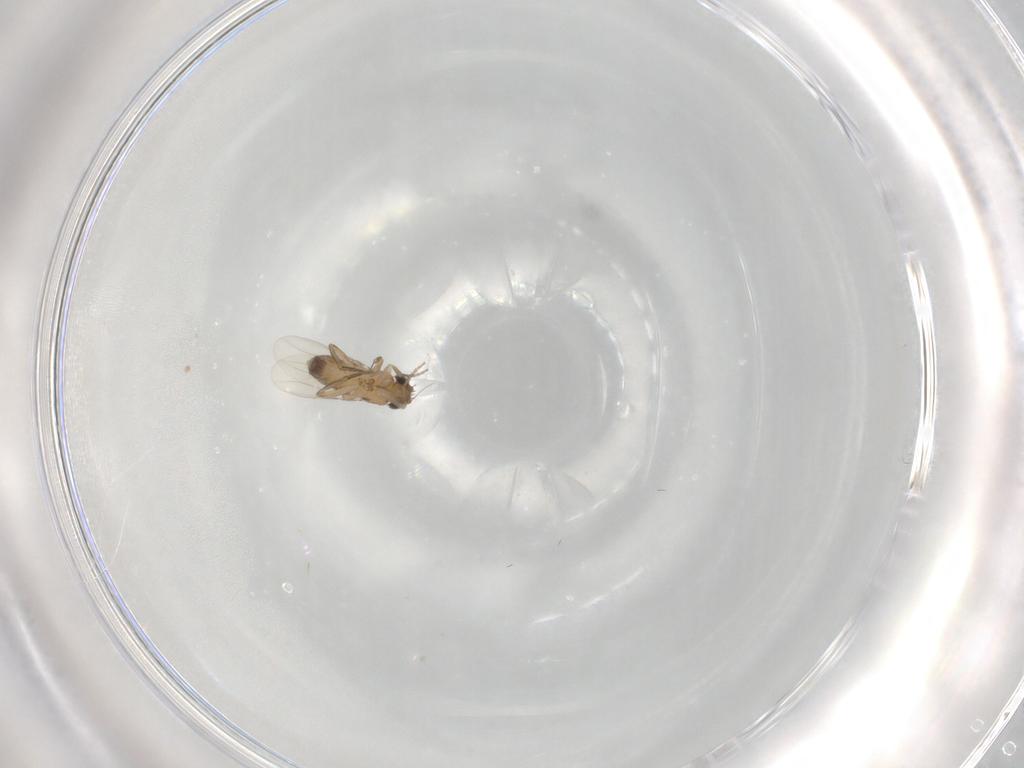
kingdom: Animalia
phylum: Arthropoda
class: Insecta
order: Diptera
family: Phoridae
